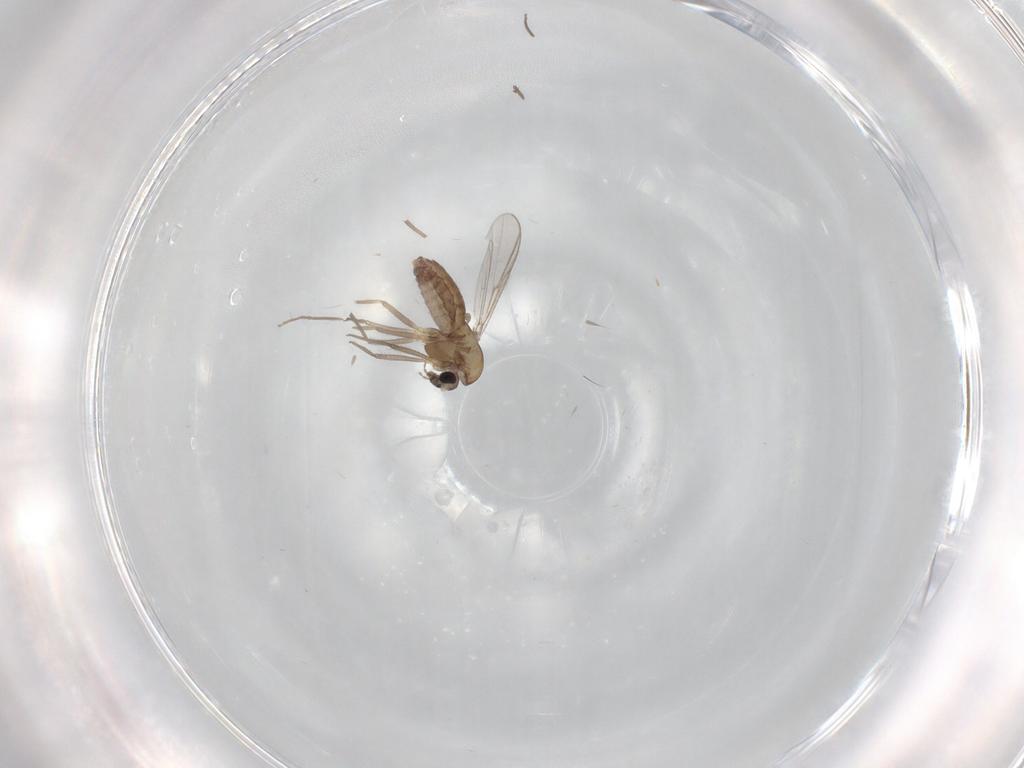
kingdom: Animalia
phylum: Arthropoda
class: Insecta
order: Diptera
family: Chironomidae
